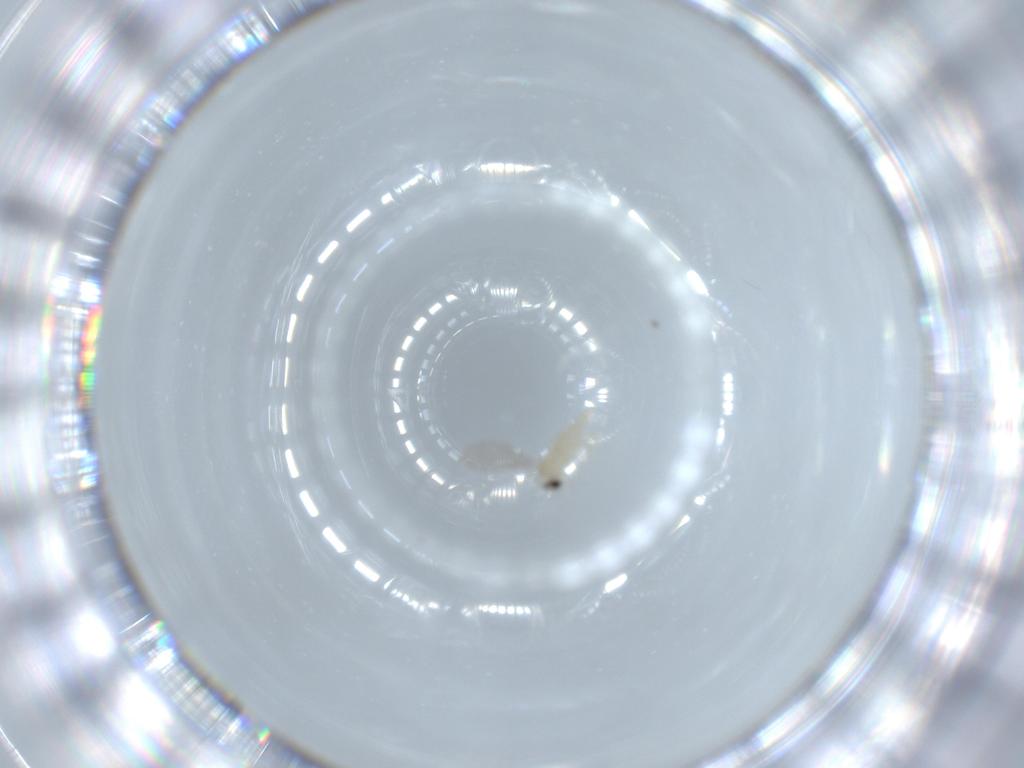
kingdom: Animalia
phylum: Arthropoda
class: Insecta
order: Diptera
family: Cecidomyiidae
